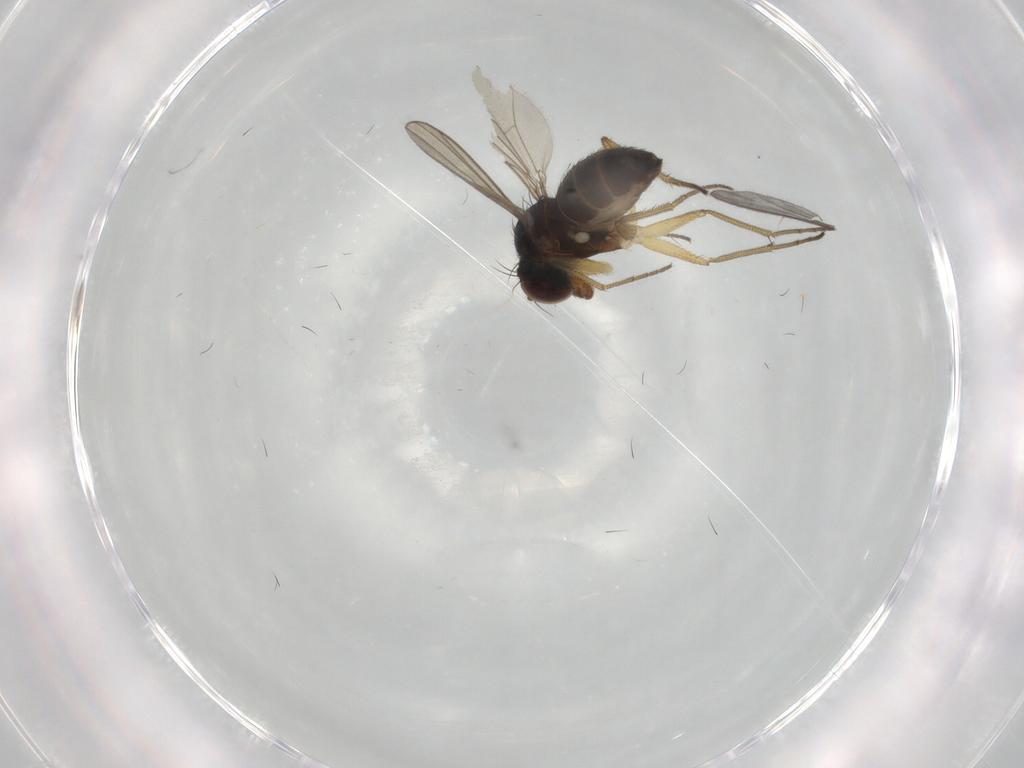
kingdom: Animalia
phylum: Arthropoda
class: Insecta
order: Diptera
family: Dolichopodidae
